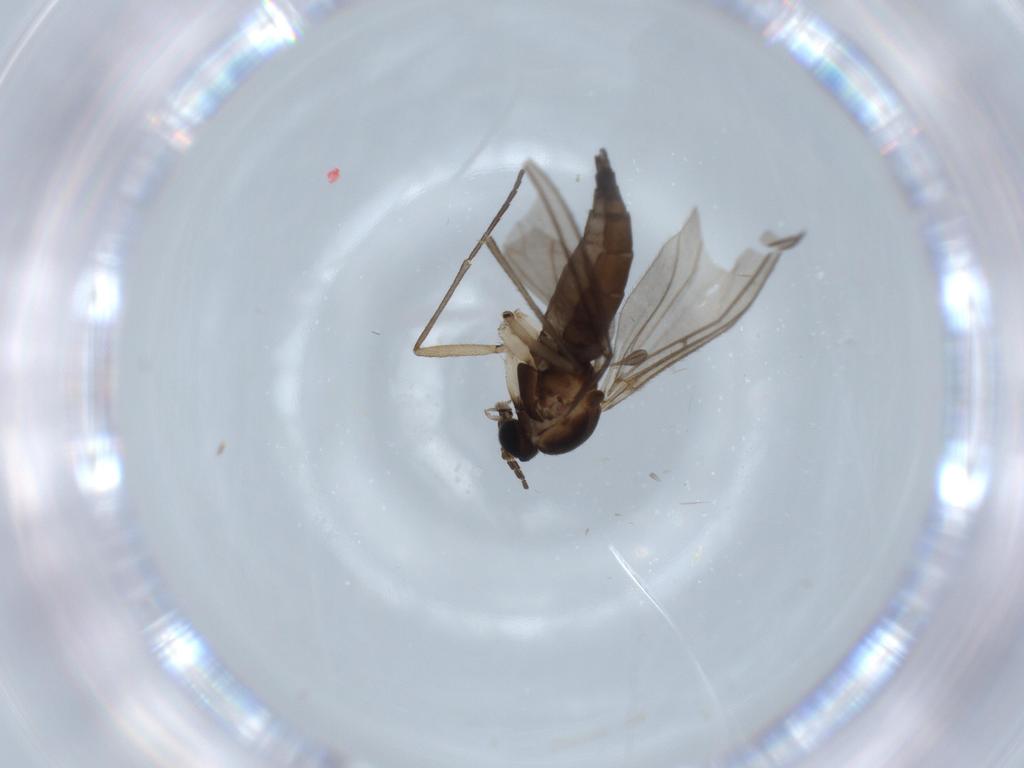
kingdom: Animalia
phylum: Arthropoda
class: Insecta
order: Diptera
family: Sciaridae
